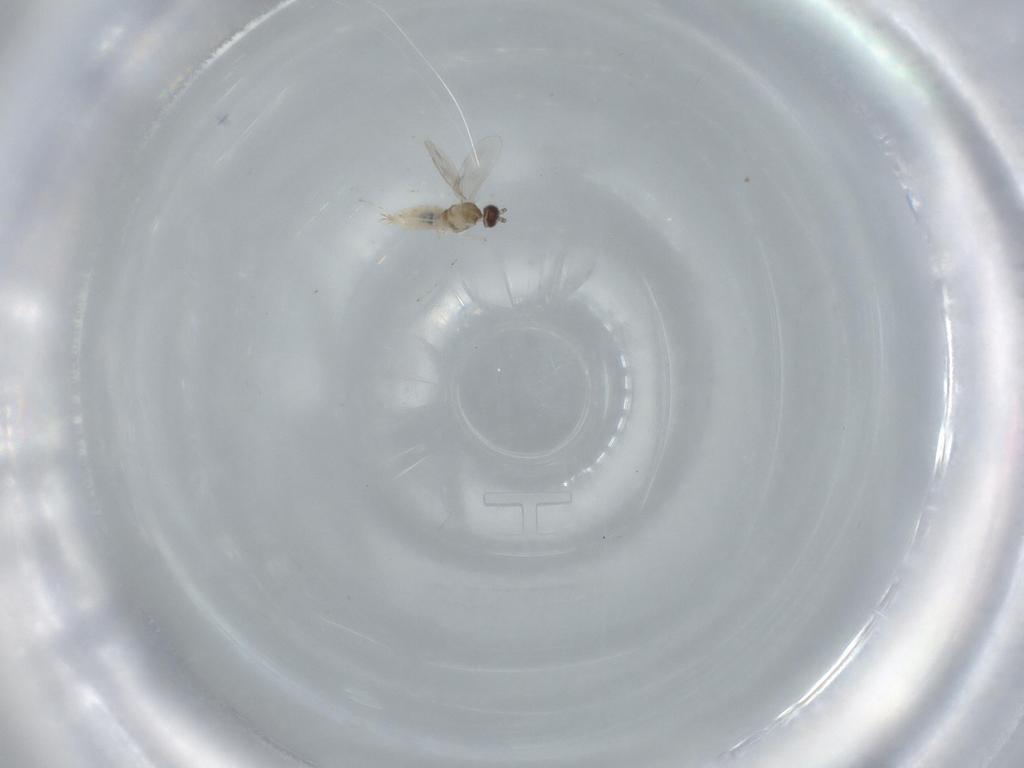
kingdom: Animalia
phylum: Arthropoda
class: Insecta
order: Diptera
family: Cecidomyiidae
